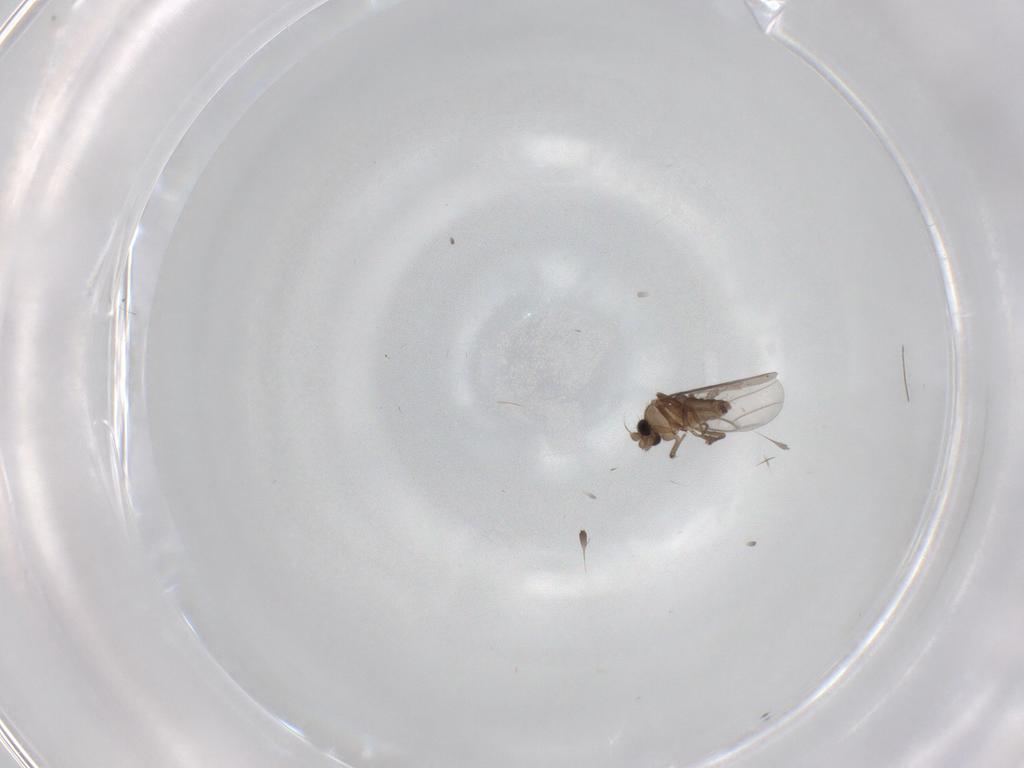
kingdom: Animalia
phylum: Arthropoda
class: Insecta
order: Diptera
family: Chironomidae
